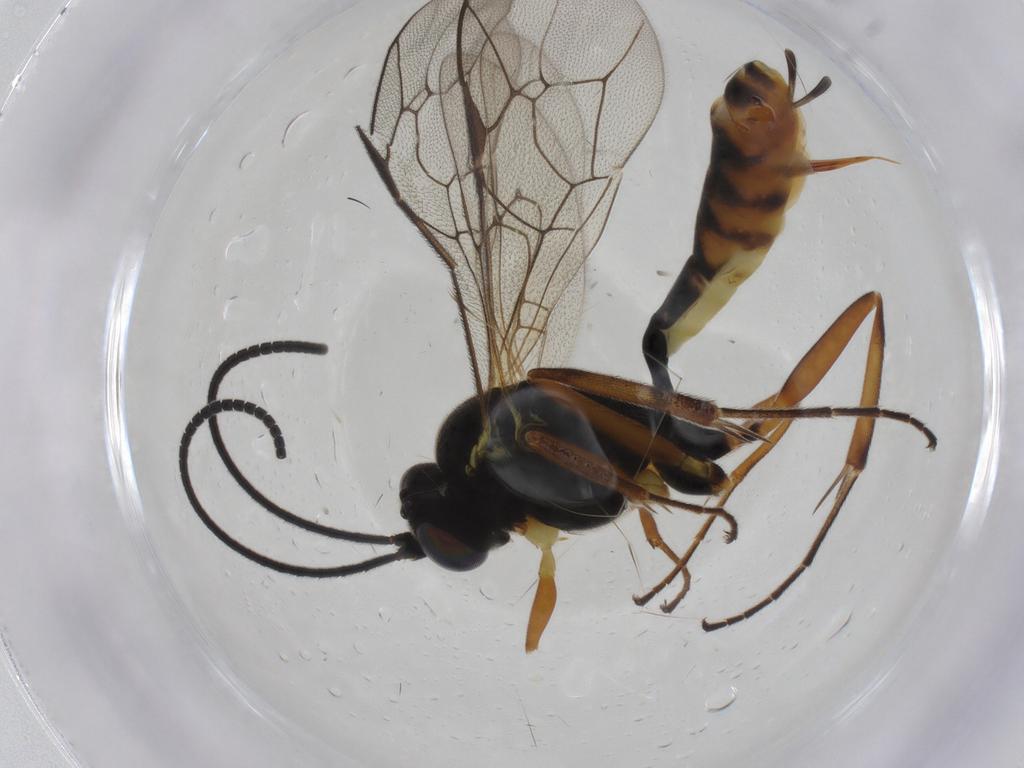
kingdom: Animalia
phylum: Arthropoda
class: Insecta
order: Hymenoptera
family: Ichneumonidae
